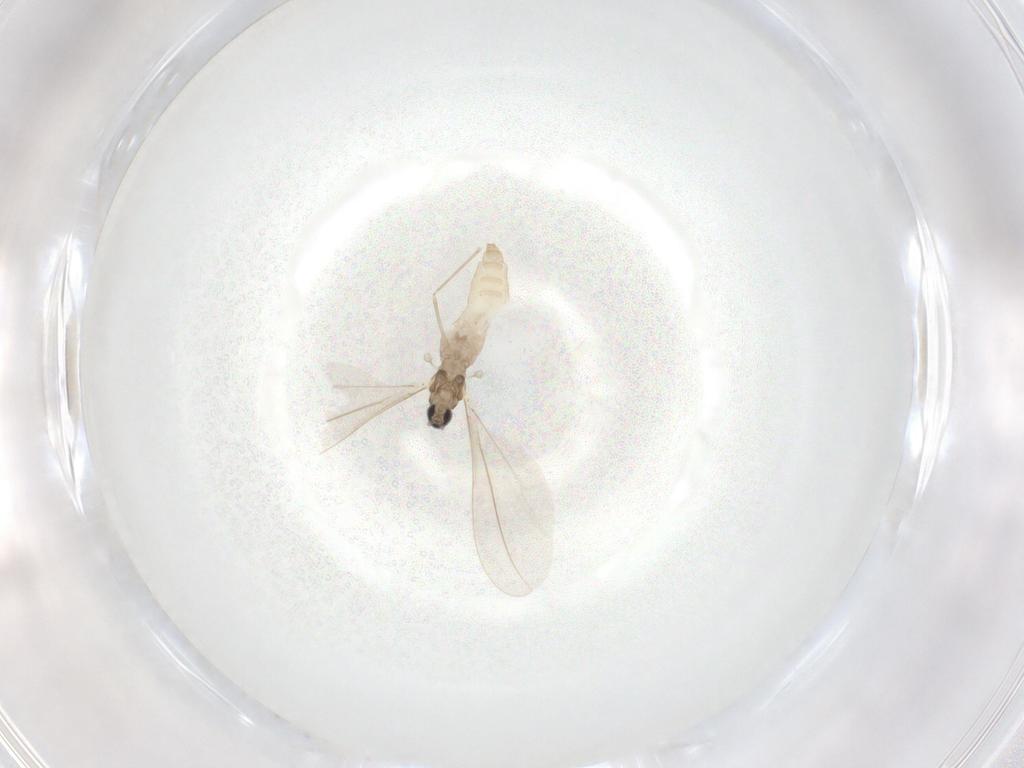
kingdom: Animalia
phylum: Arthropoda
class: Insecta
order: Diptera
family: Cecidomyiidae
